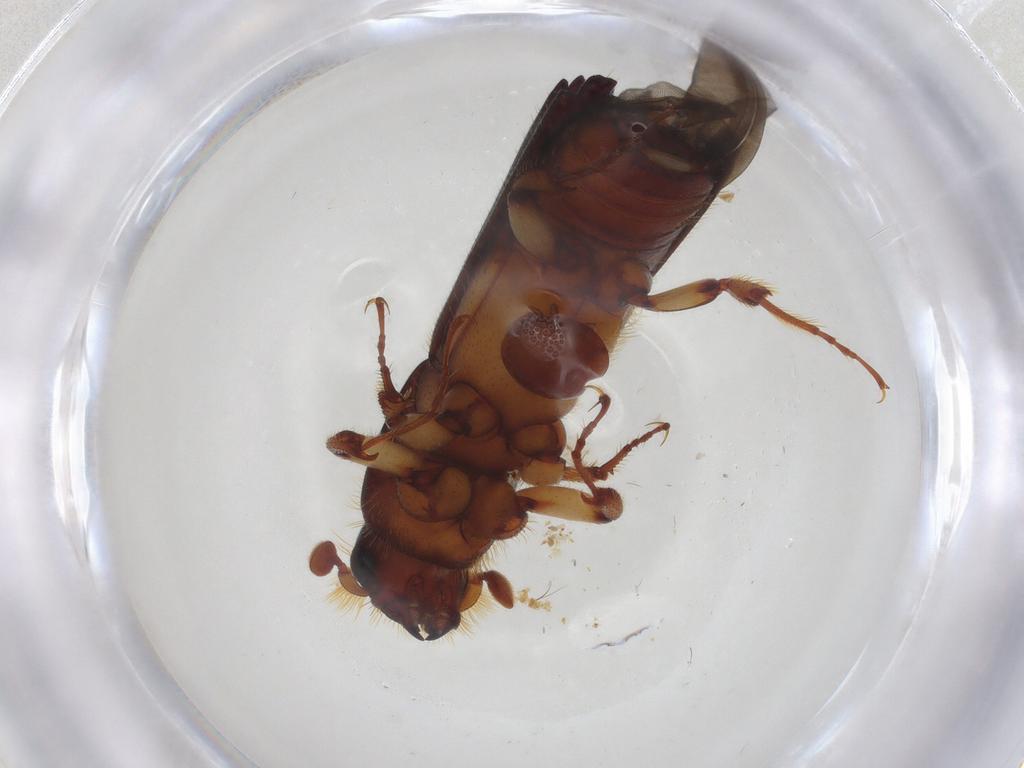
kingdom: Animalia
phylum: Arthropoda
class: Insecta
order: Coleoptera
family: Curculionidae
